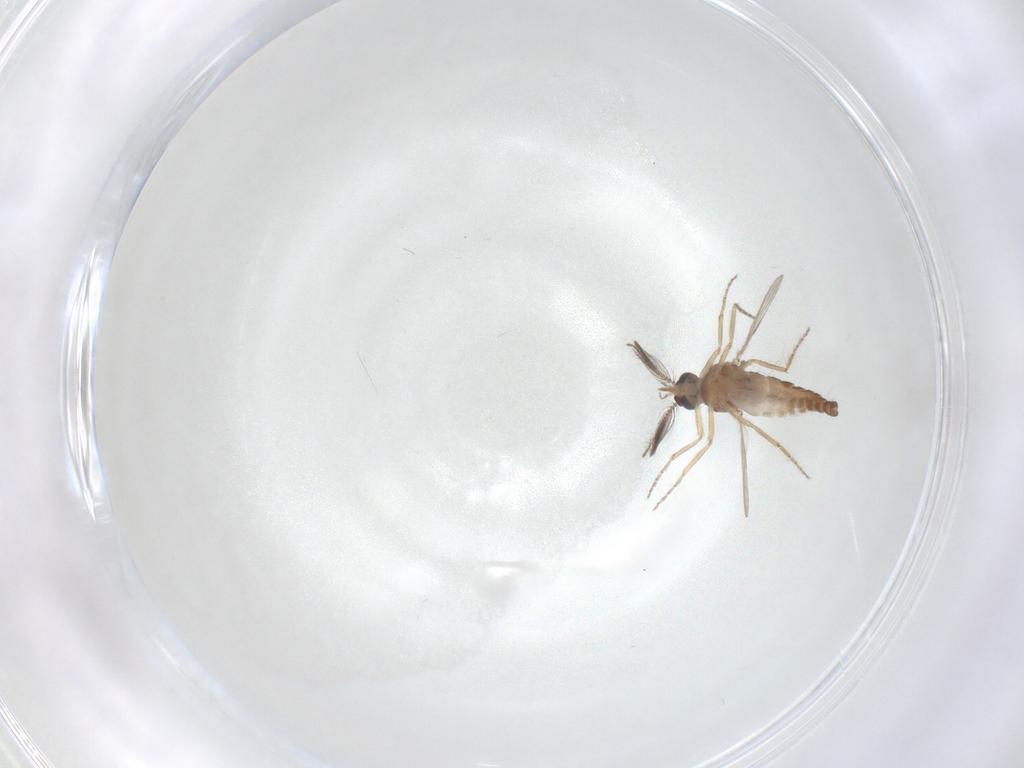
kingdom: Animalia
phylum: Arthropoda
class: Insecta
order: Diptera
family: Ceratopogonidae
